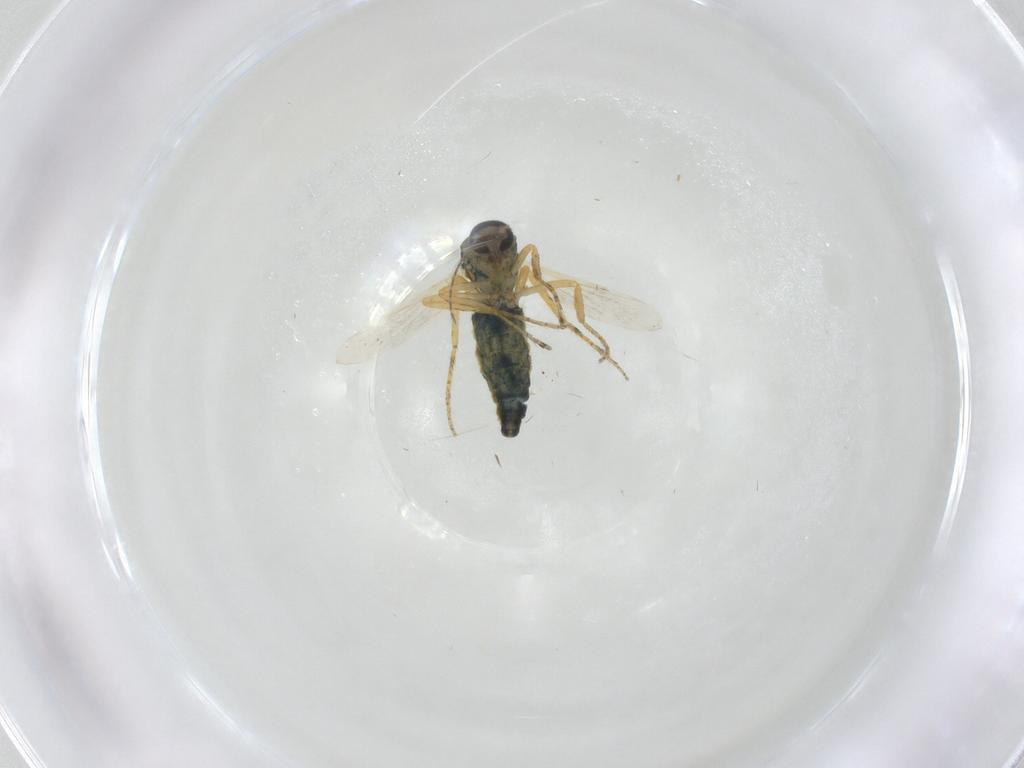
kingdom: Animalia
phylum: Arthropoda
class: Insecta
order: Diptera
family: Ceratopogonidae
